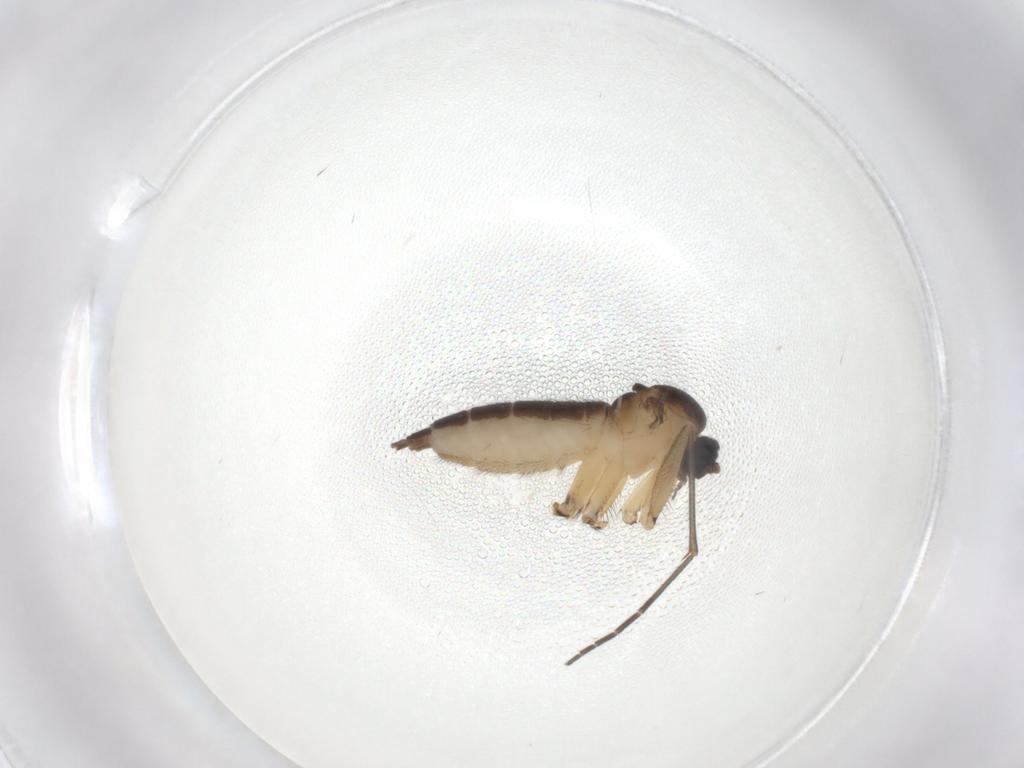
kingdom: Animalia
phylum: Arthropoda
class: Insecta
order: Diptera
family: Sciaridae
